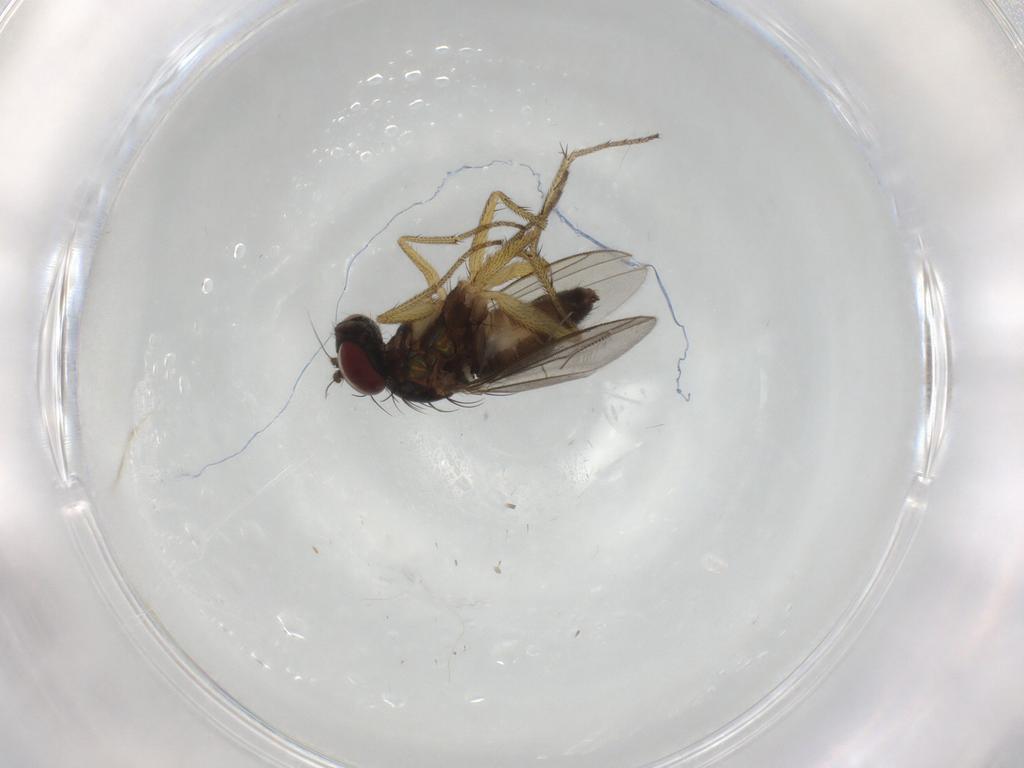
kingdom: Animalia
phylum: Arthropoda
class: Insecta
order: Diptera
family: Dolichopodidae
